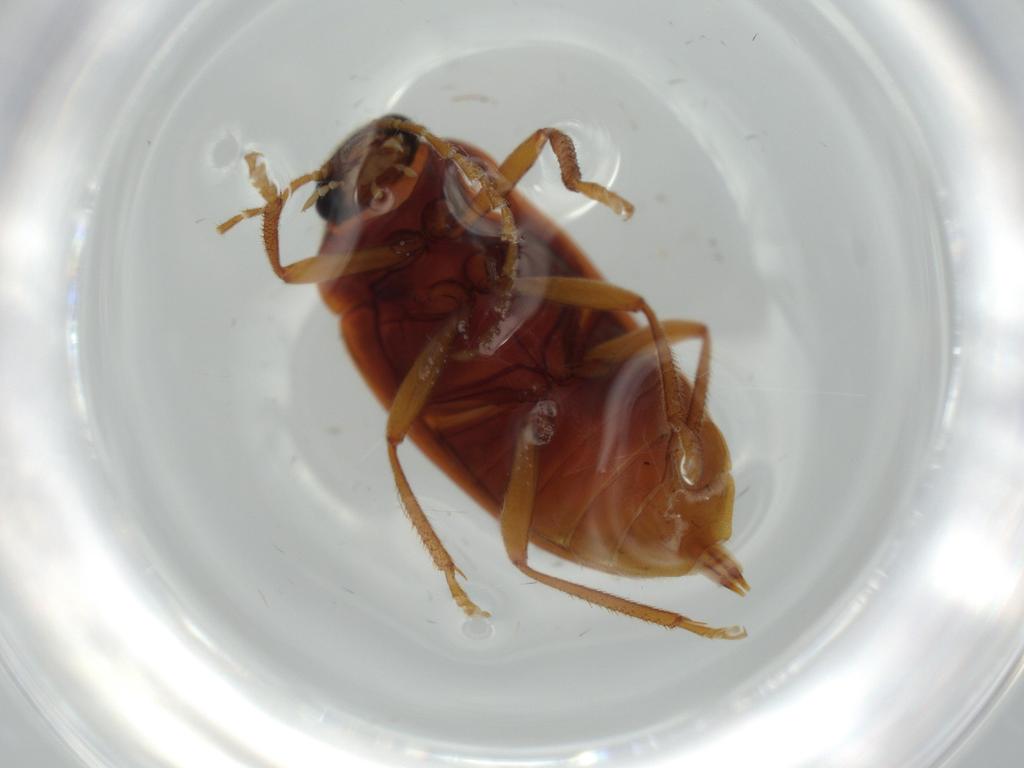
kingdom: Animalia
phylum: Arthropoda
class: Insecta
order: Coleoptera
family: Ptilodactylidae
